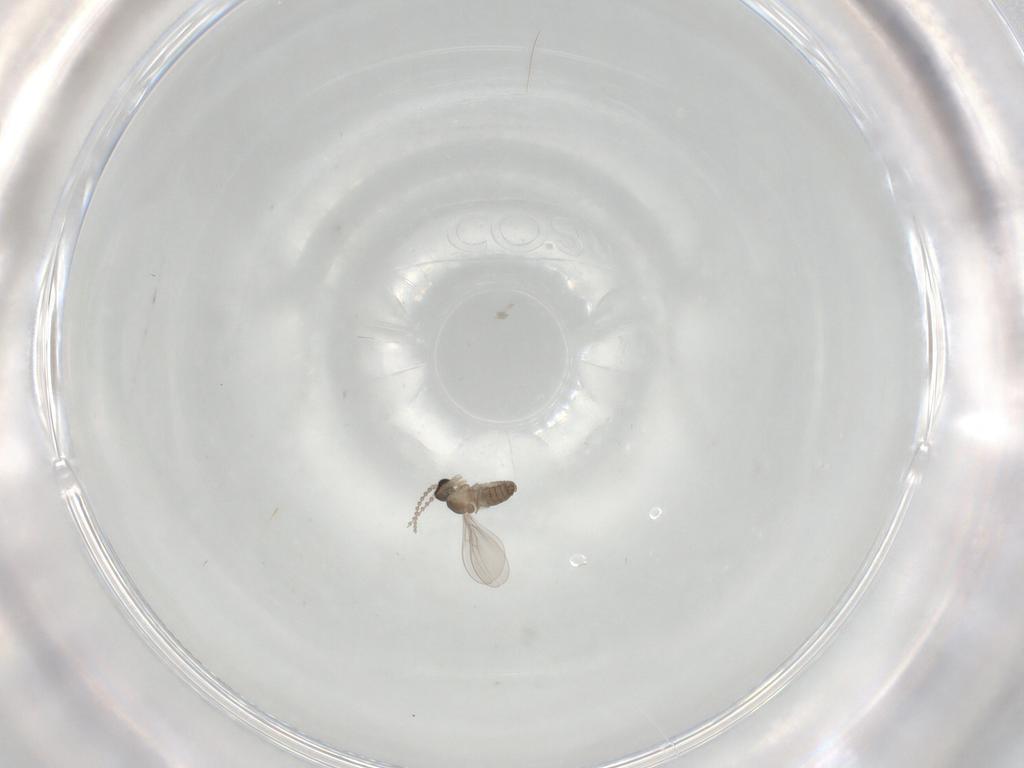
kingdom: Animalia
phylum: Arthropoda
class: Insecta
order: Diptera
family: Cecidomyiidae
